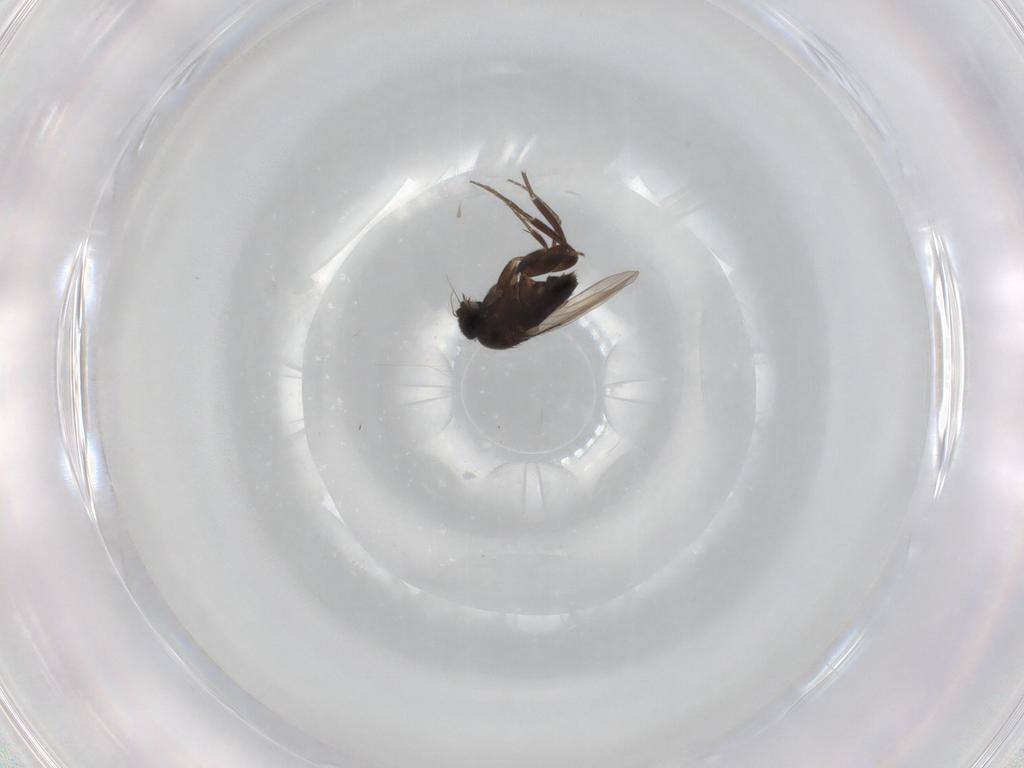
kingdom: Animalia
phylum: Arthropoda
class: Insecta
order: Diptera
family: Phoridae
